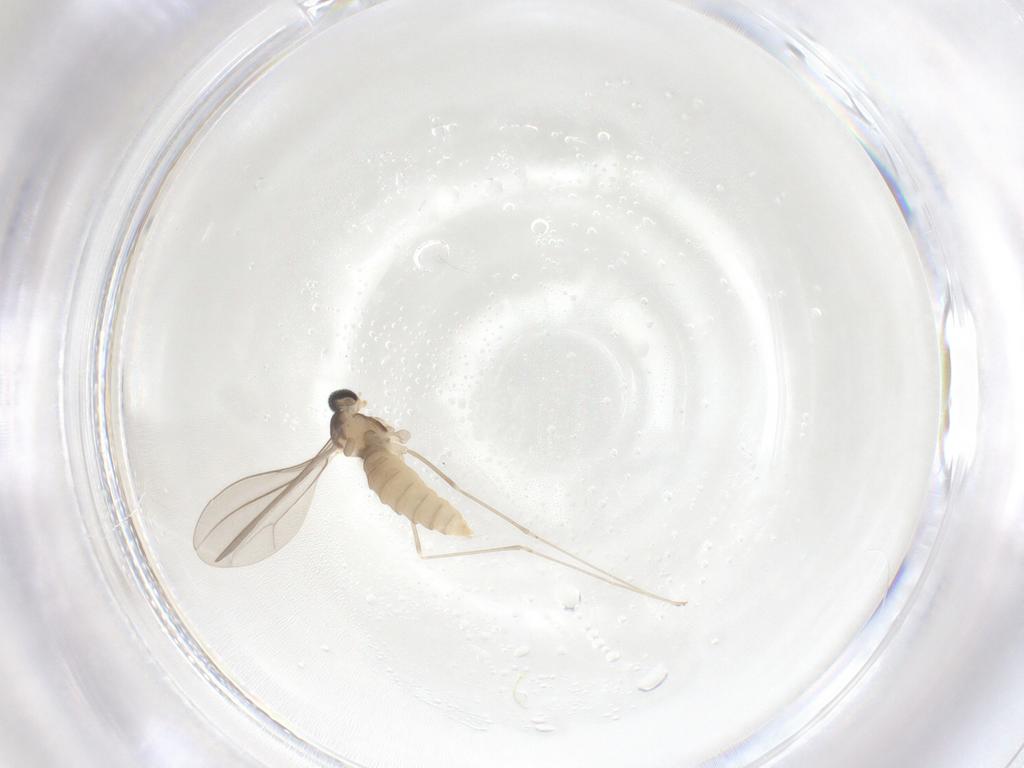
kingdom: Animalia
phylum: Arthropoda
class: Insecta
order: Diptera
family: Cecidomyiidae
